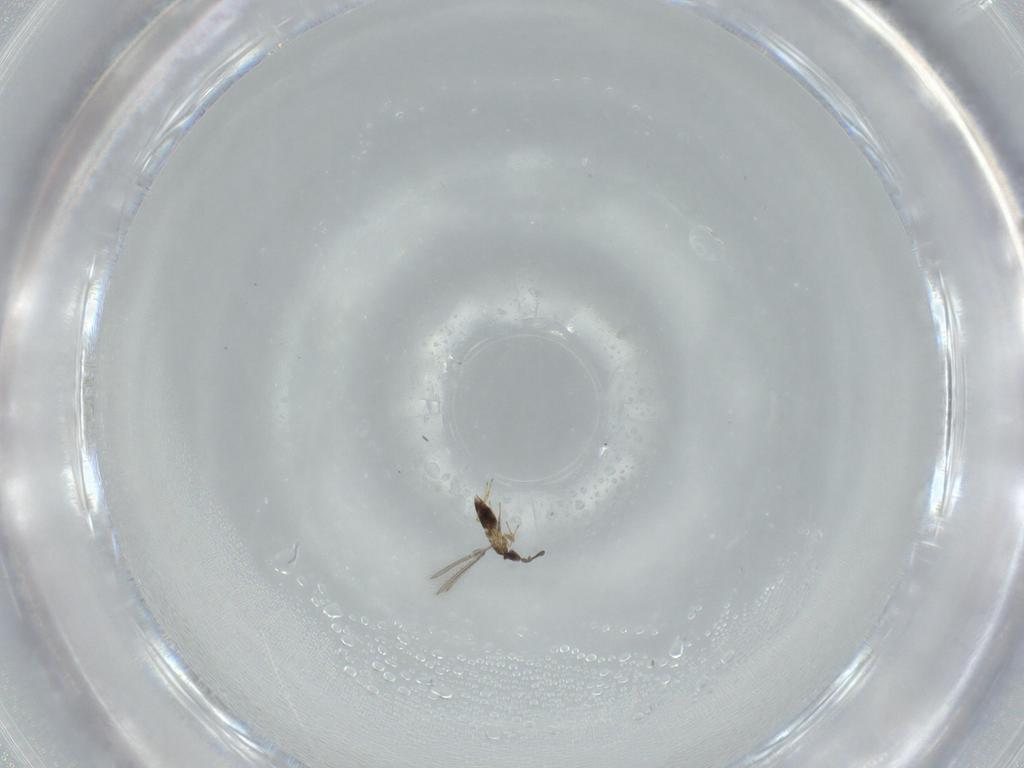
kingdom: Animalia
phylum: Arthropoda
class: Insecta
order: Hymenoptera
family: Mymaridae
